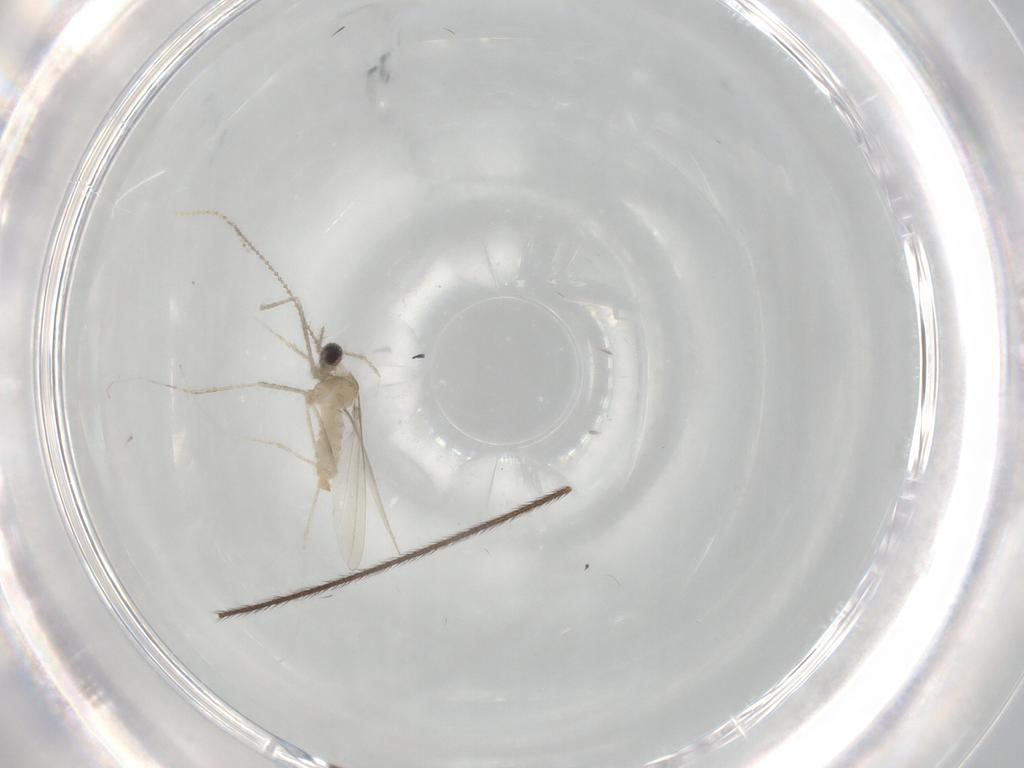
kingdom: Animalia
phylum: Arthropoda
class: Insecta
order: Diptera
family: Cecidomyiidae
